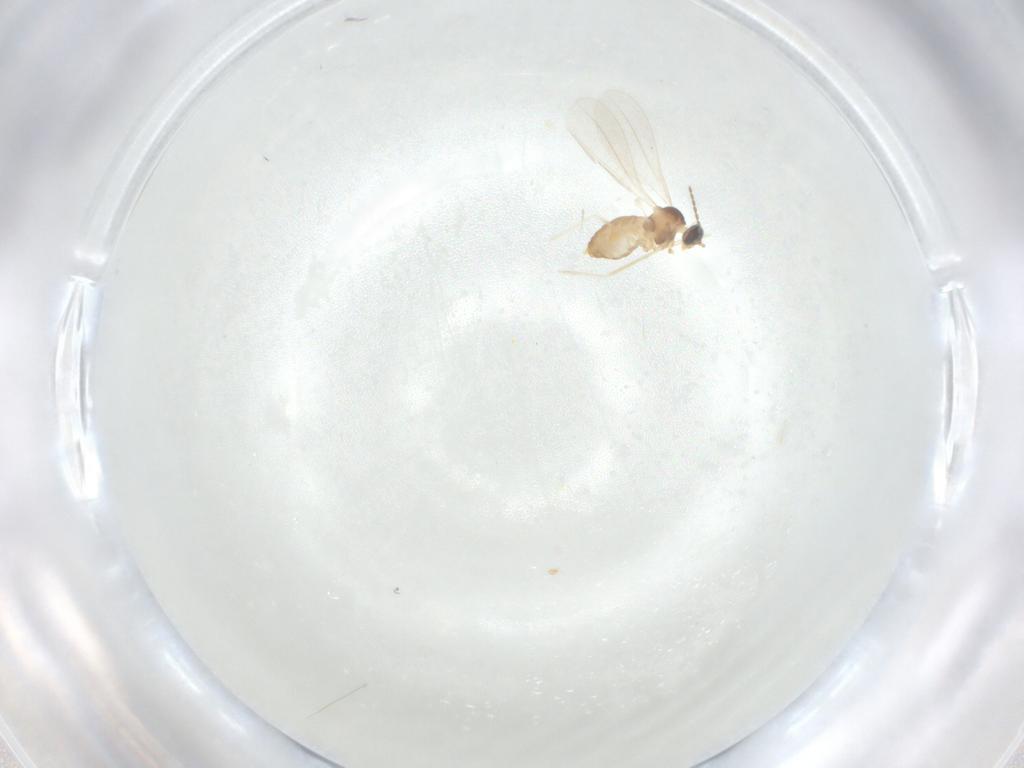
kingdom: Animalia
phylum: Arthropoda
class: Insecta
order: Diptera
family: Cecidomyiidae
